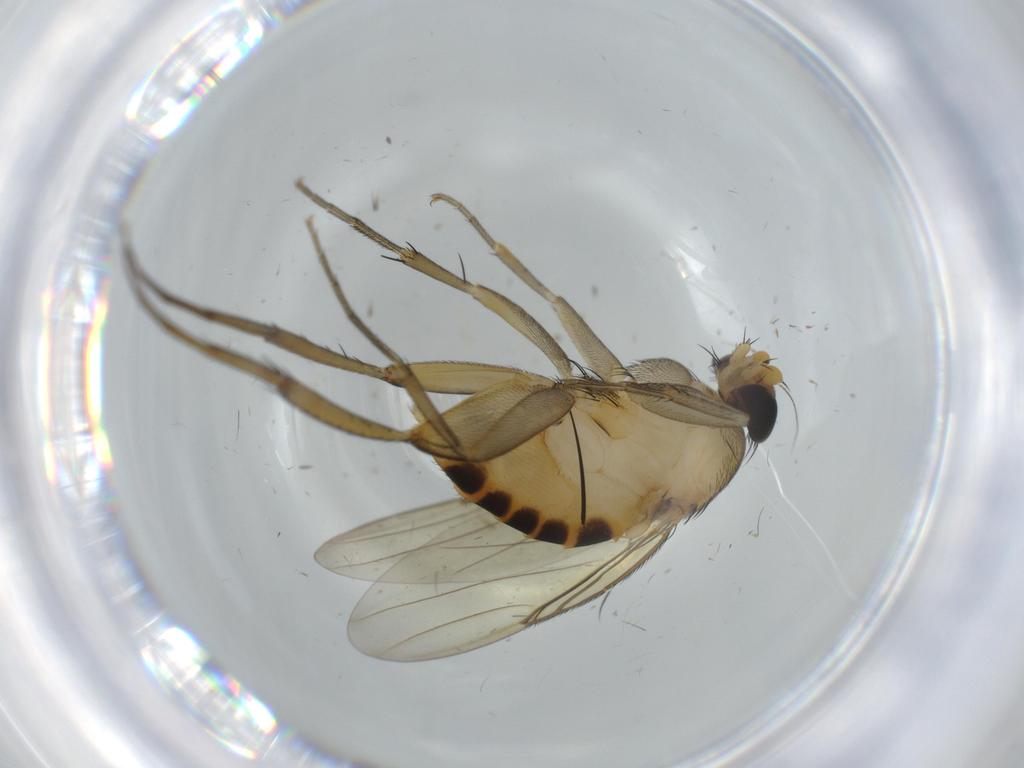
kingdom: Animalia
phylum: Arthropoda
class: Insecta
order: Diptera
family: Phoridae
